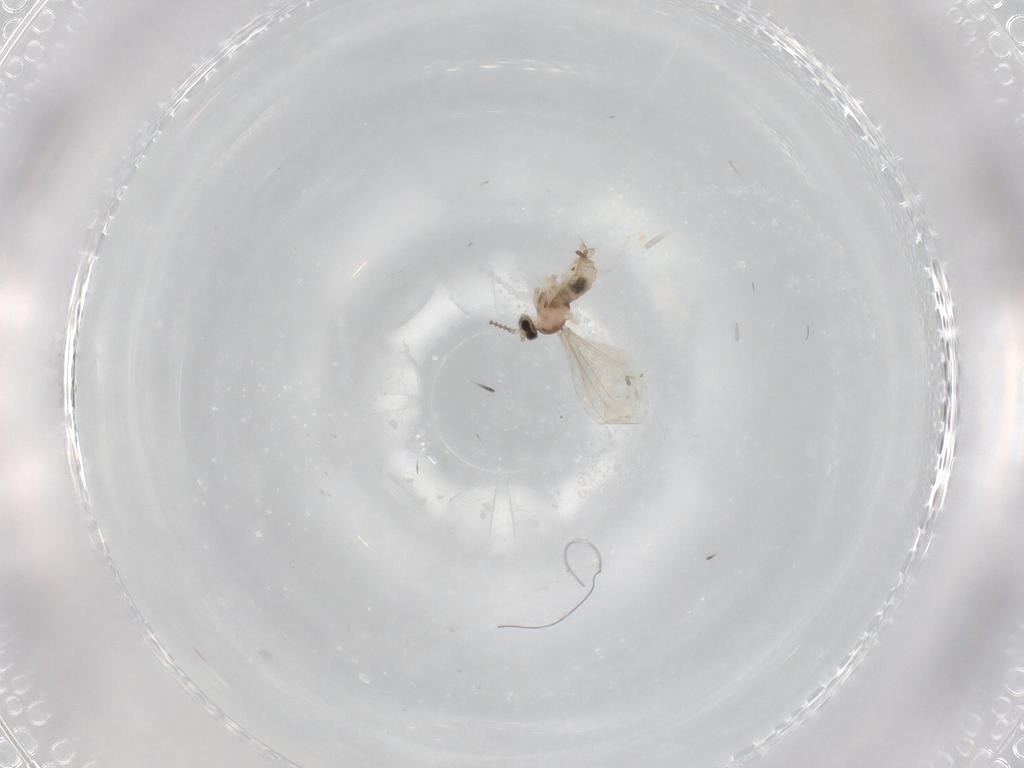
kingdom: Animalia
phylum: Arthropoda
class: Insecta
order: Diptera
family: Cecidomyiidae
